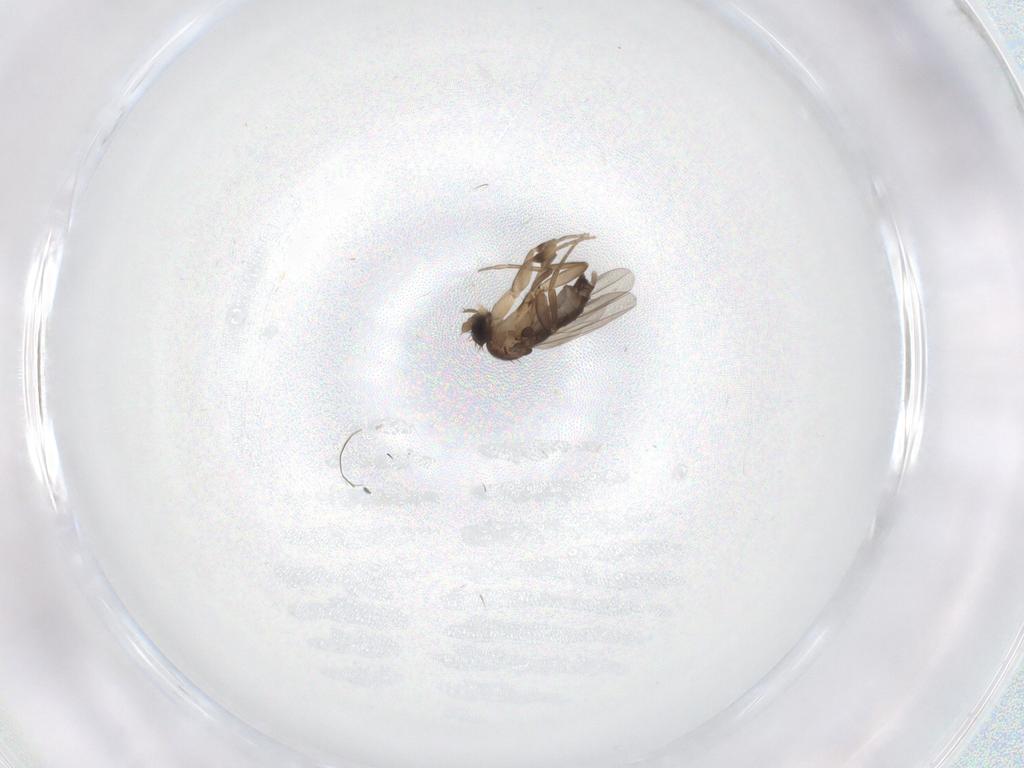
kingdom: Animalia
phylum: Arthropoda
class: Insecta
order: Diptera
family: Phoridae
